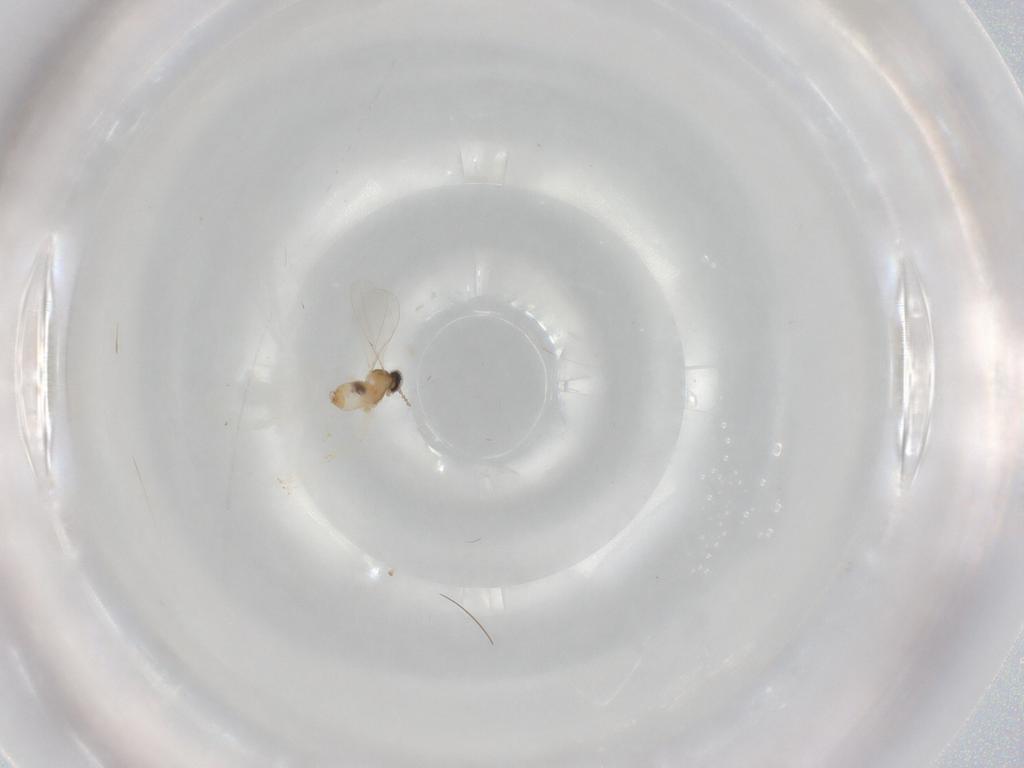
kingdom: Animalia
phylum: Arthropoda
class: Insecta
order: Diptera
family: Cecidomyiidae
